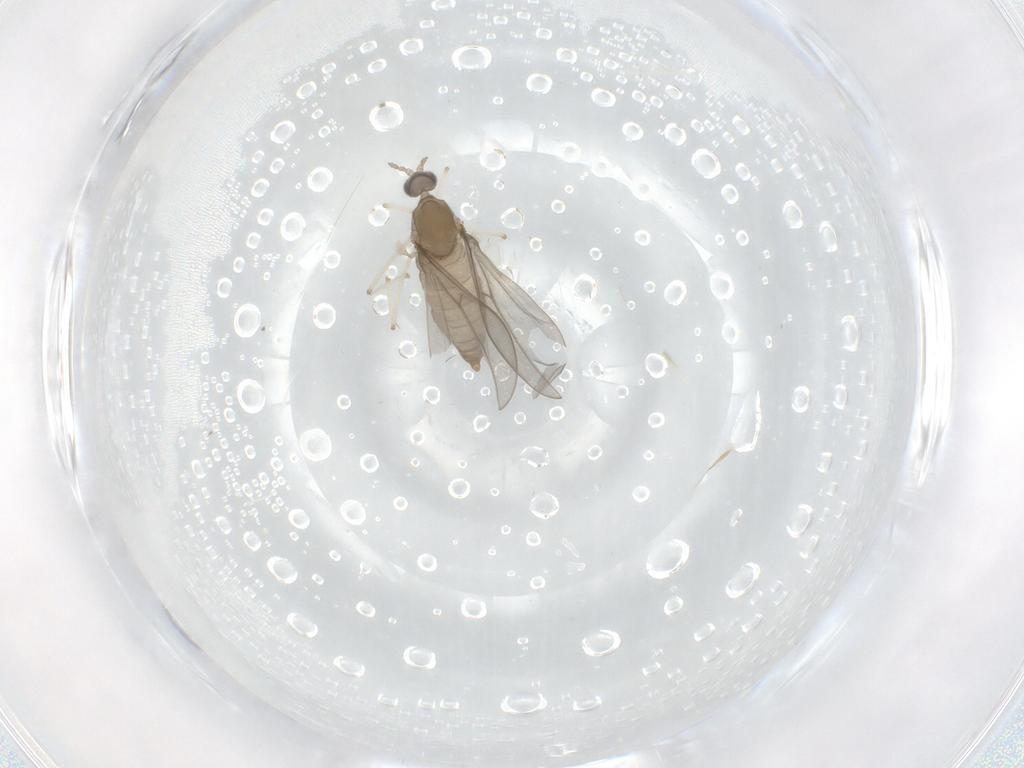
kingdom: Animalia
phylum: Arthropoda
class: Insecta
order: Diptera
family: Cecidomyiidae
